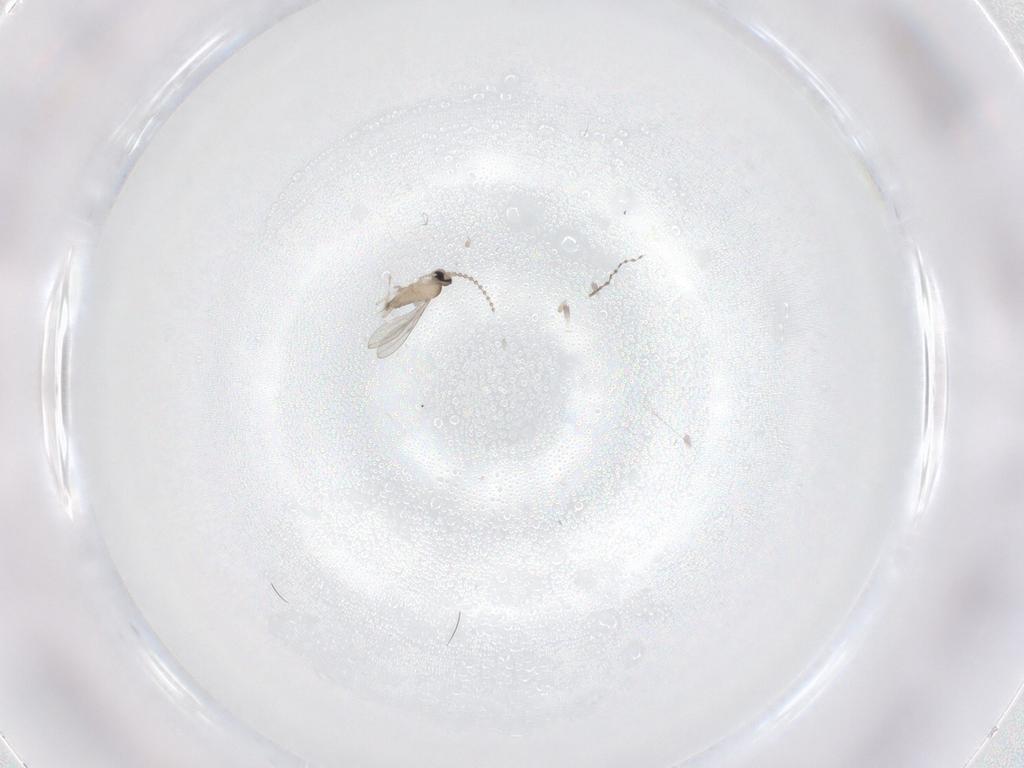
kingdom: Animalia
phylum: Arthropoda
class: Insecta
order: Diptera
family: Cecidomyiidae
